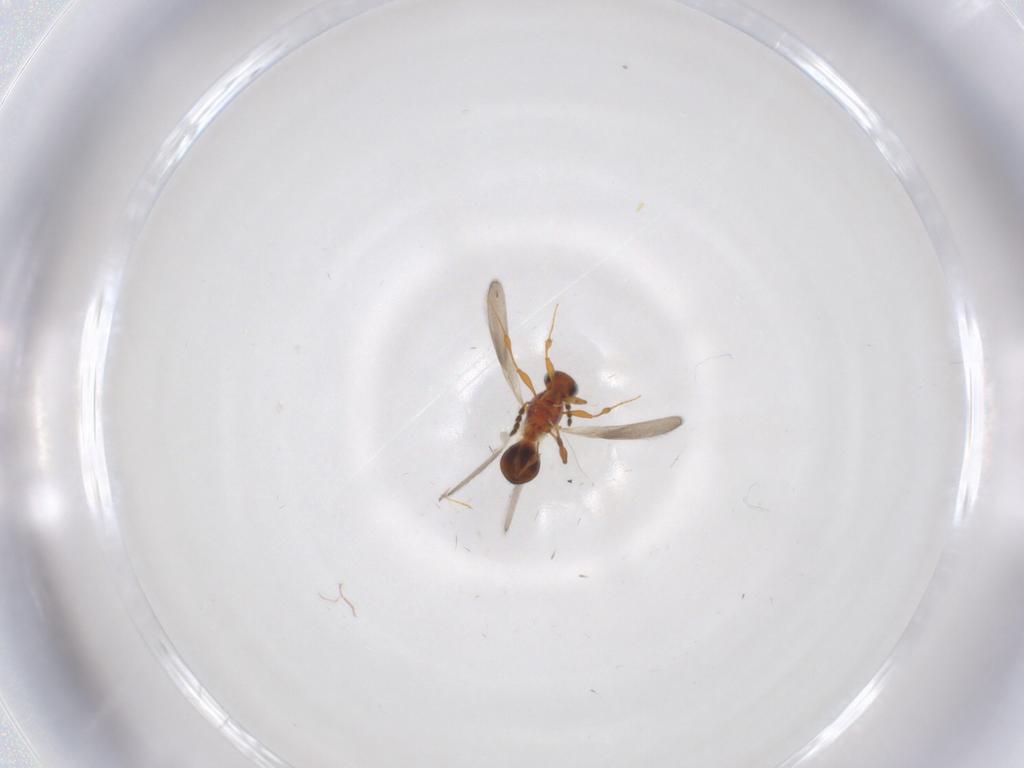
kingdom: Animalia
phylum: Arthropoda
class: Insecta
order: Hymenoptera
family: Platygastridae
